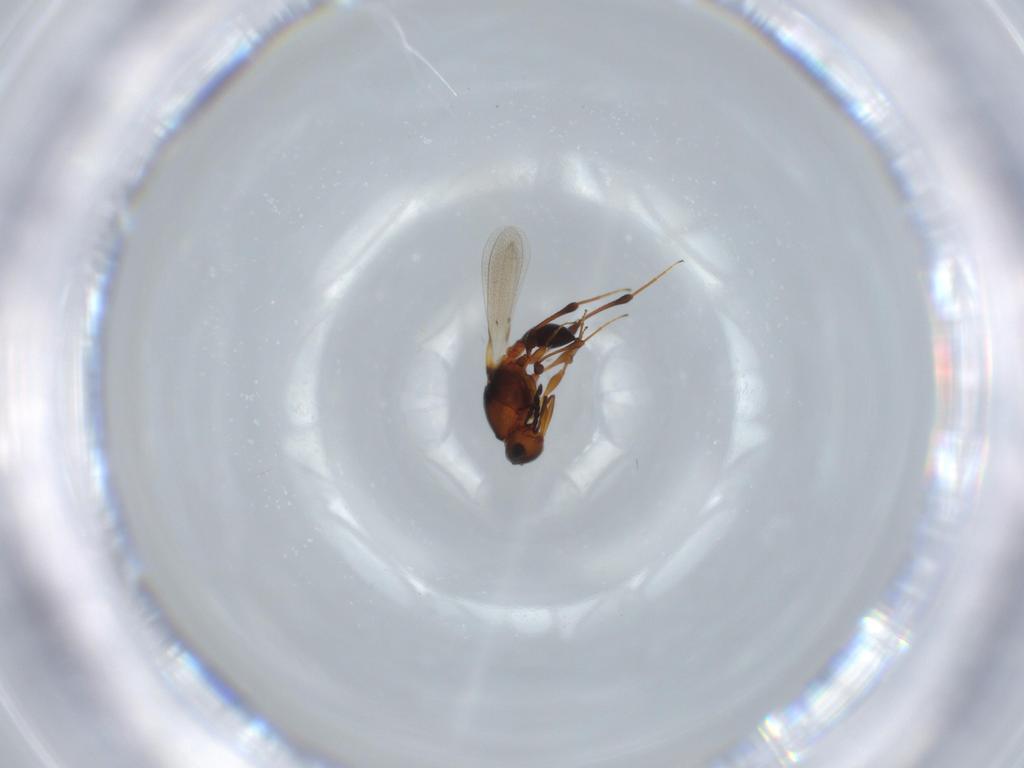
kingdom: Animalia
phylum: Arthropoda
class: Insecta
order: Hymenoptera
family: Platygastridae
